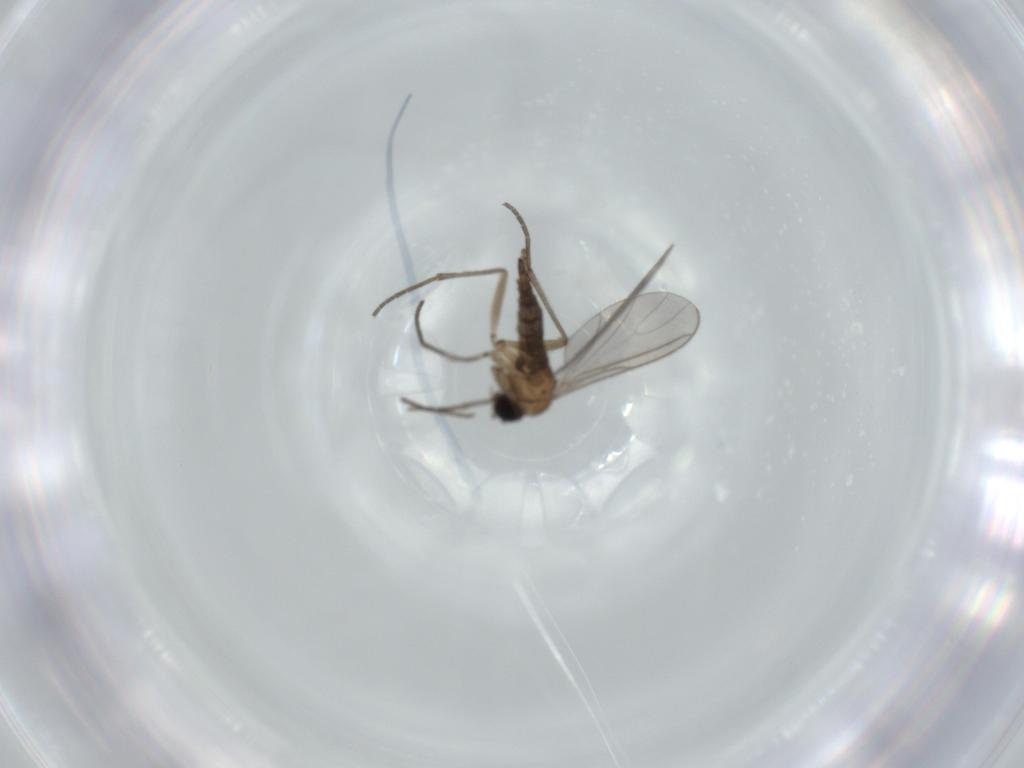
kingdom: Animalia
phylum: Arthropoda
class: Insecta
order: Diptera
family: Sciaridae
